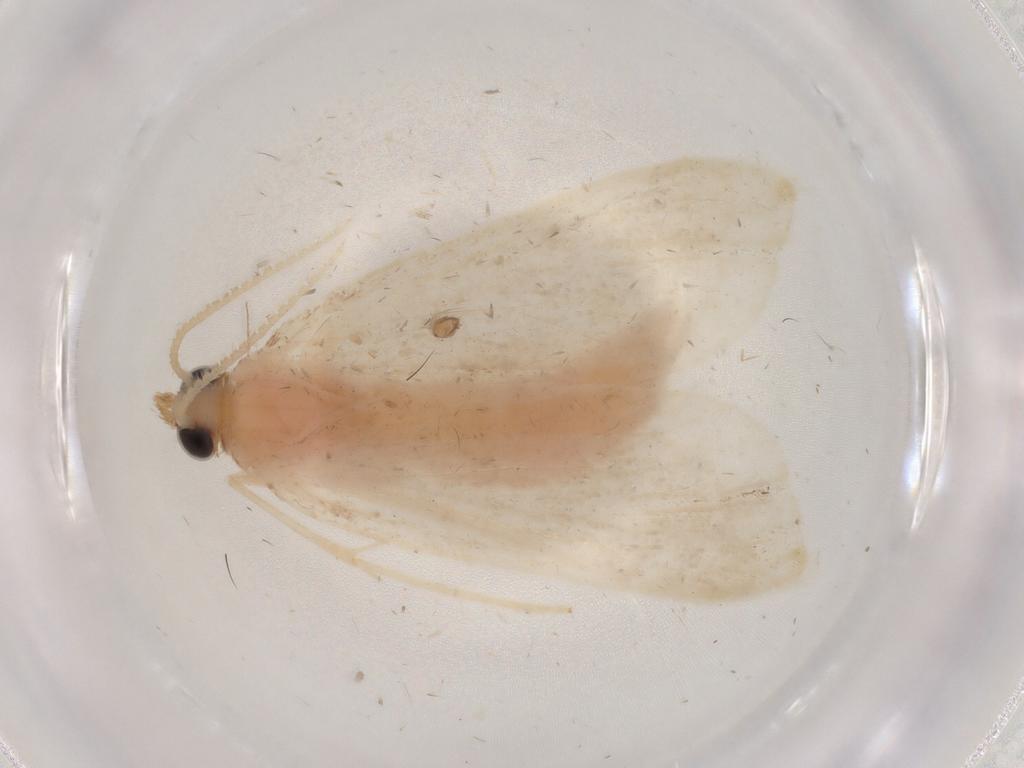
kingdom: Animalia
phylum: Arthropoda
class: Insecta
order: Lepidoptera
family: Crambidae
